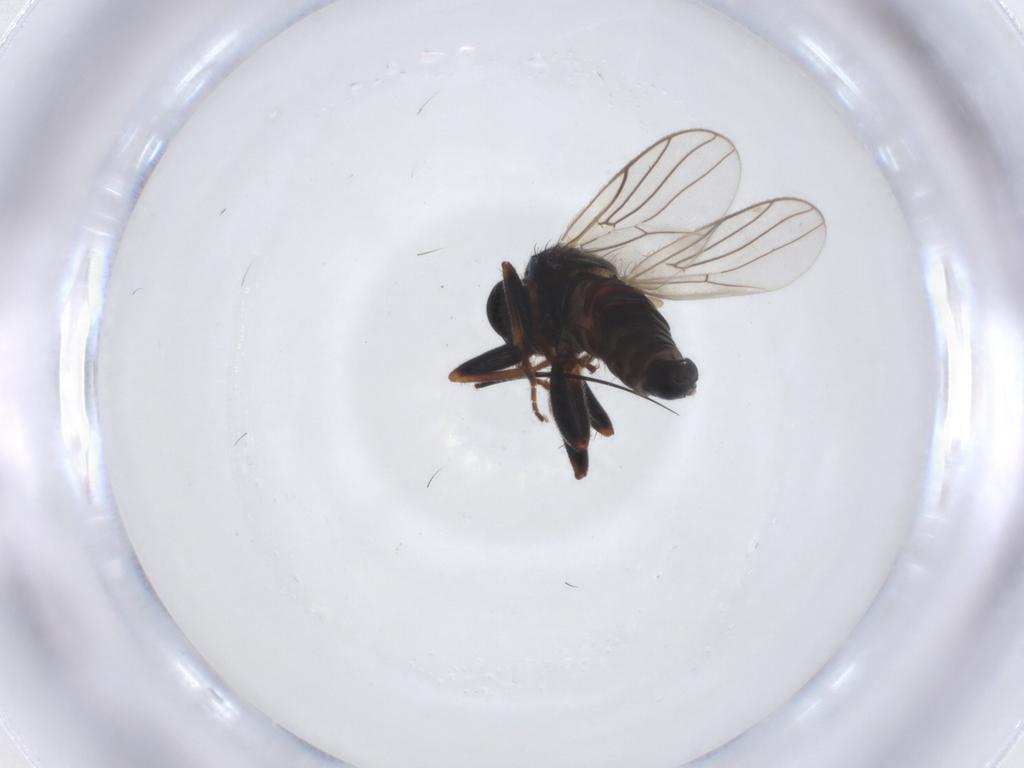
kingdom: Animalia
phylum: Arthropoda
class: Insecta
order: Diptera
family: Hybotidae
